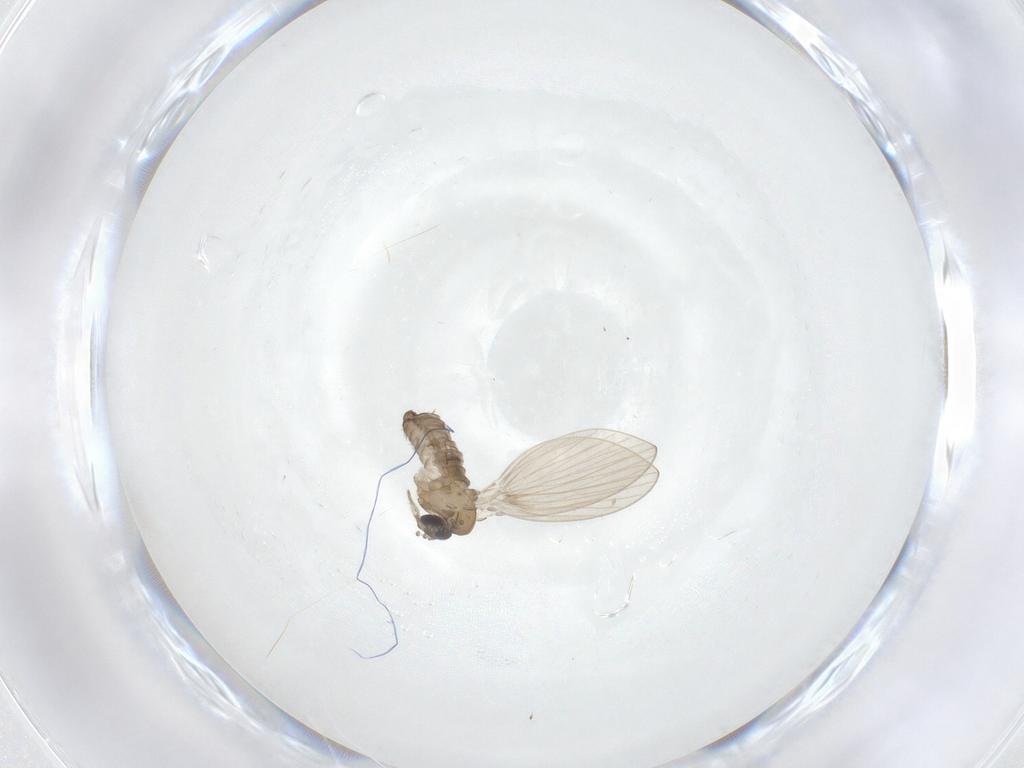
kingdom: Animalia
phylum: Arthropoda
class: Insecta
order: Diptera
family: Psychodidae
